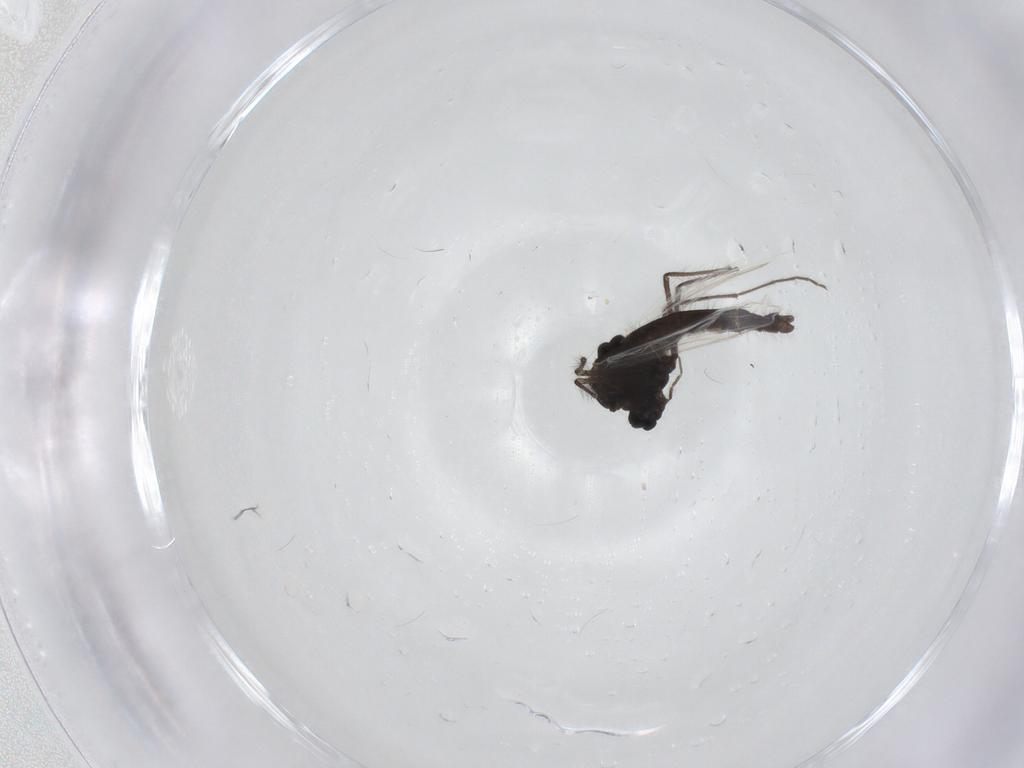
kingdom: Animalia
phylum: Arthropoda
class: Insecta
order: Diptera
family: Chironomidae
